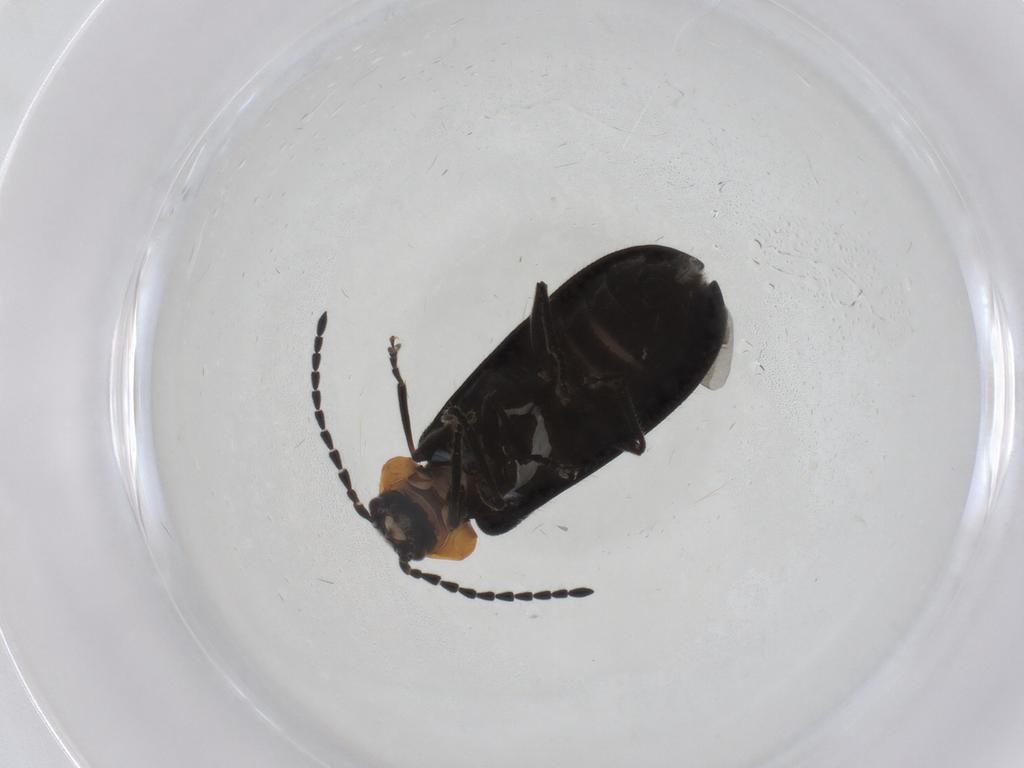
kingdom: Animalia
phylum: Arthropoda
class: Insecta
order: Coleoptera
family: Cantharidae
